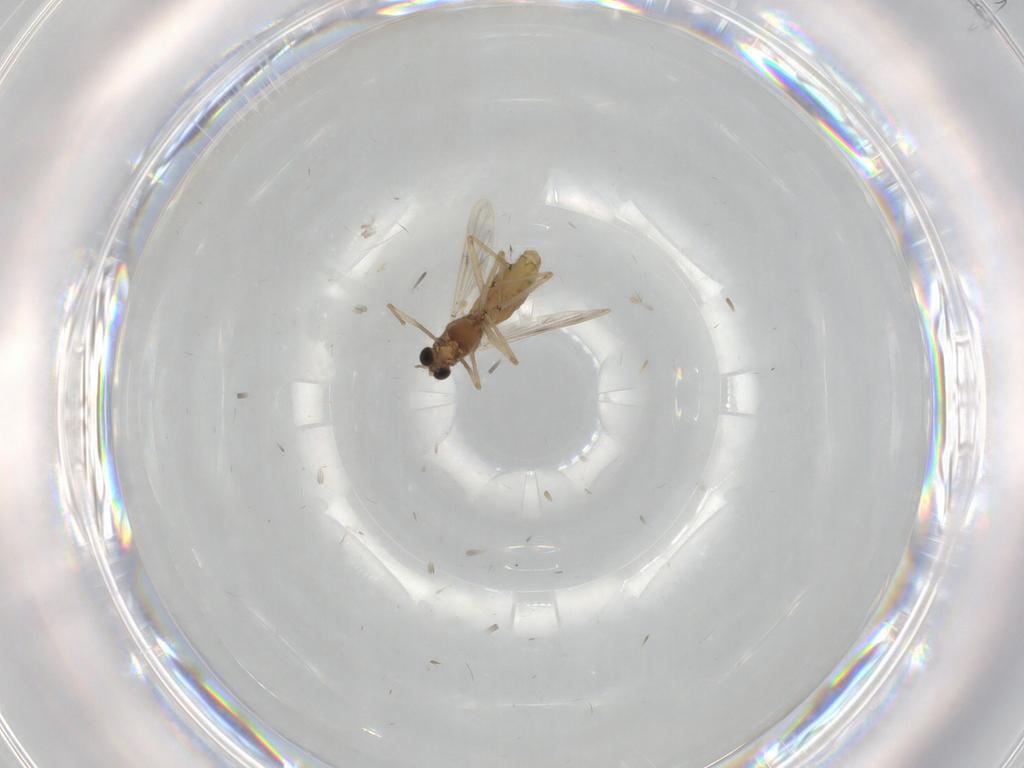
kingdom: Animalia
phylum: Arthropoda
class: Insecta
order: Diptera
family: Chironomidae
